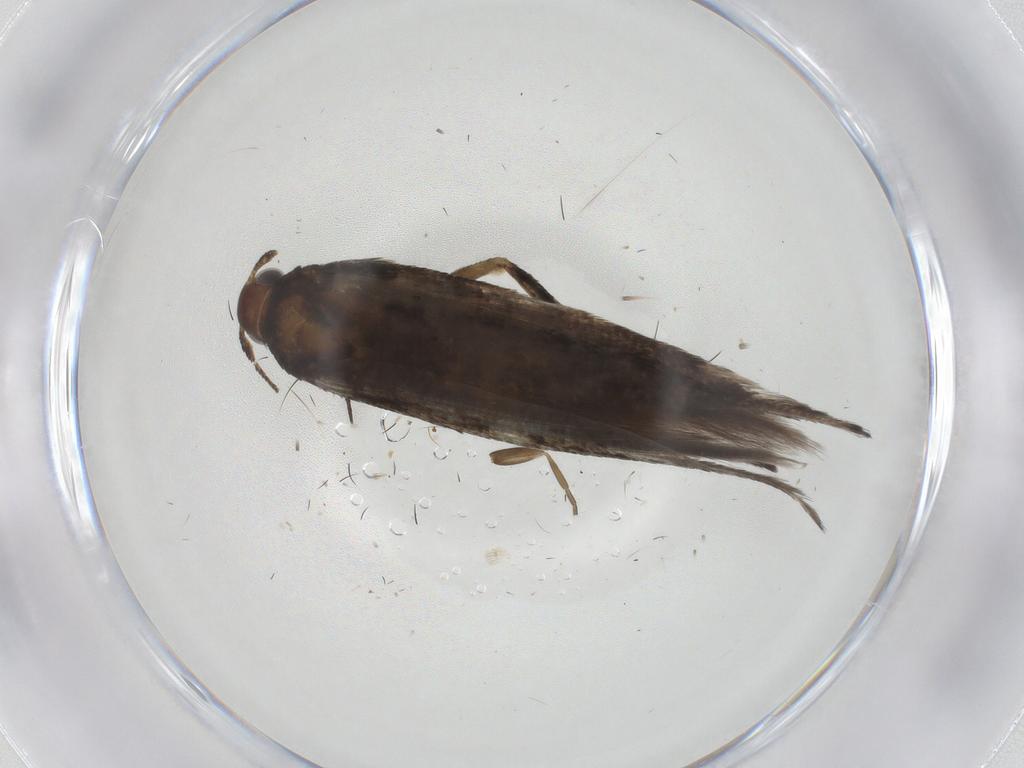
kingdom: Animalia
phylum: Arthropoda
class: Insecta
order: Lepidoptera
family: Gelechiidae
